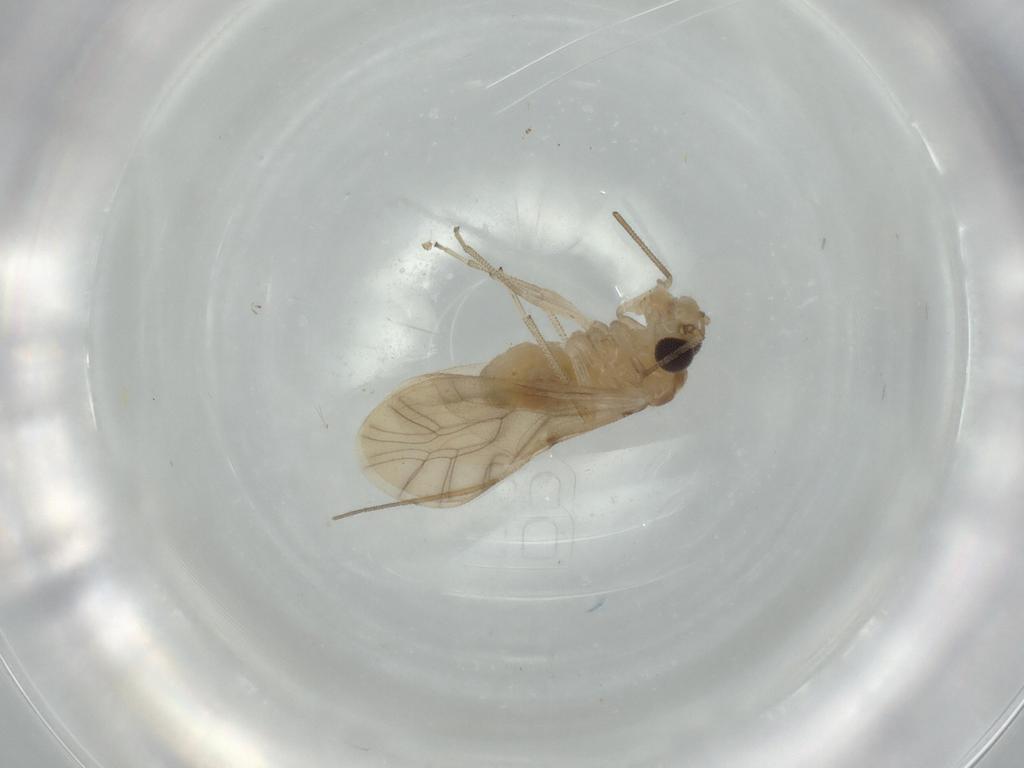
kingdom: Animalia
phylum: Arthropoda
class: Insecta
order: Psocodea
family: Caeciliusidae
